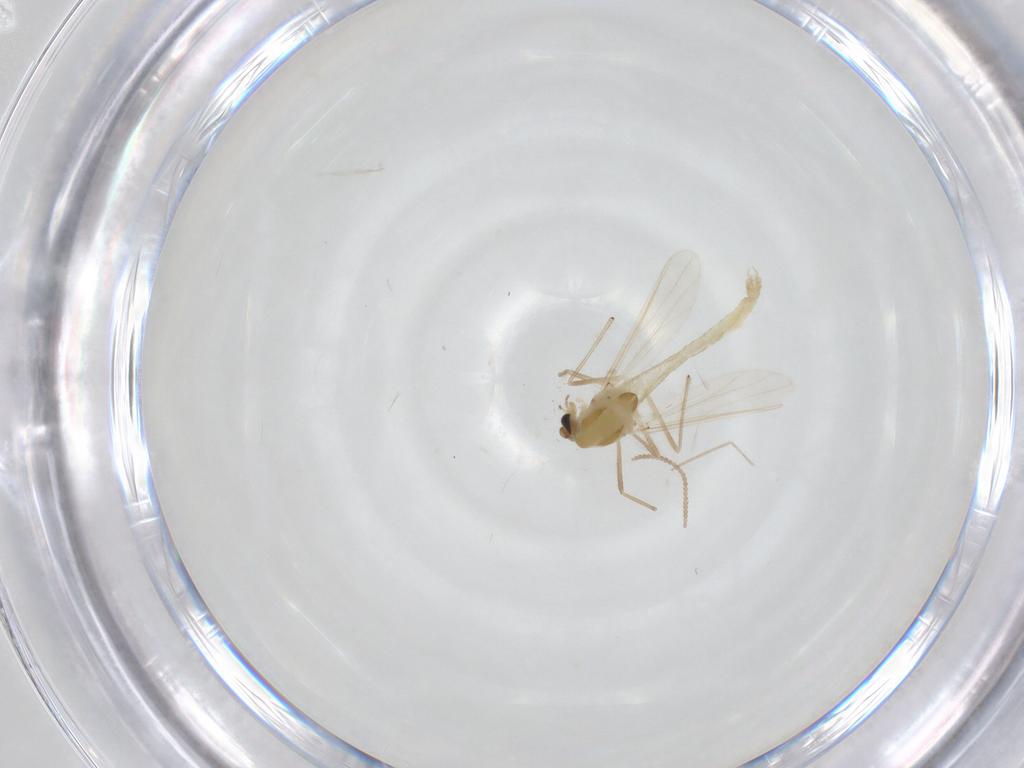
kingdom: Animalia
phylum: Arthropoda
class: Insecta
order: Diptera
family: Chironomidae
